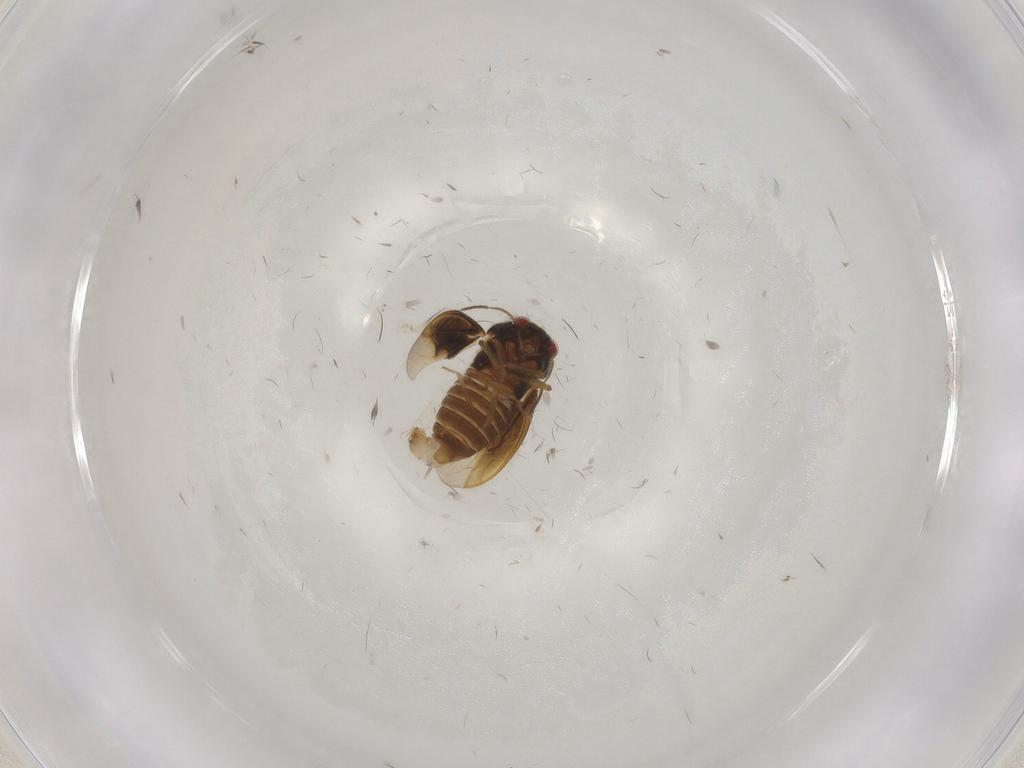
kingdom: Animalia
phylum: Arthropoda
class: Insecta
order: Hemiptera
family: Schizopteridae
